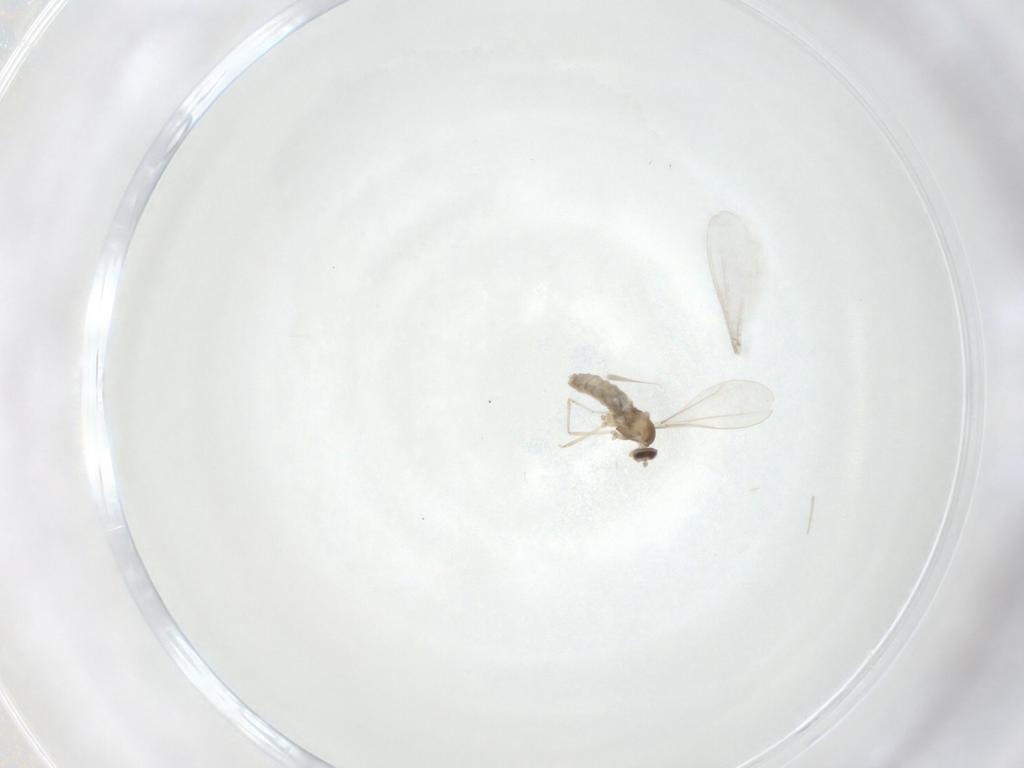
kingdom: Animalia
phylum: Arthropoda
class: Insecta
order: Diptera
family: Cecidomyiidae
